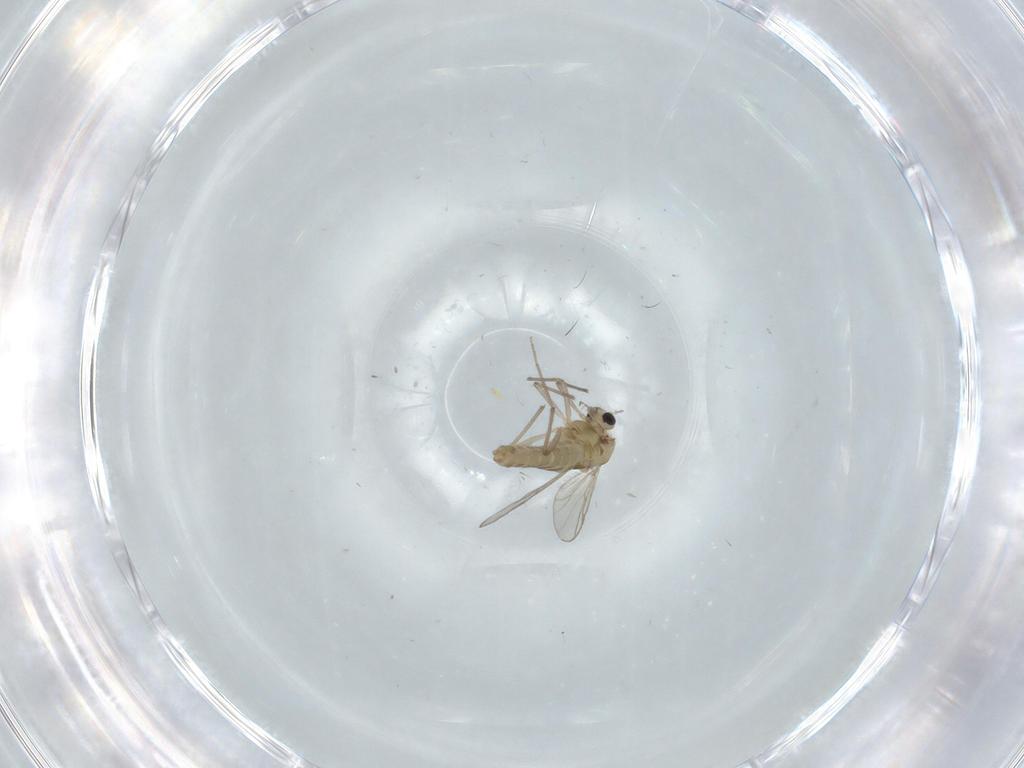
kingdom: Animalia
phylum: Arthropoda
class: Insecta
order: Diptera
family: Chironomidae
